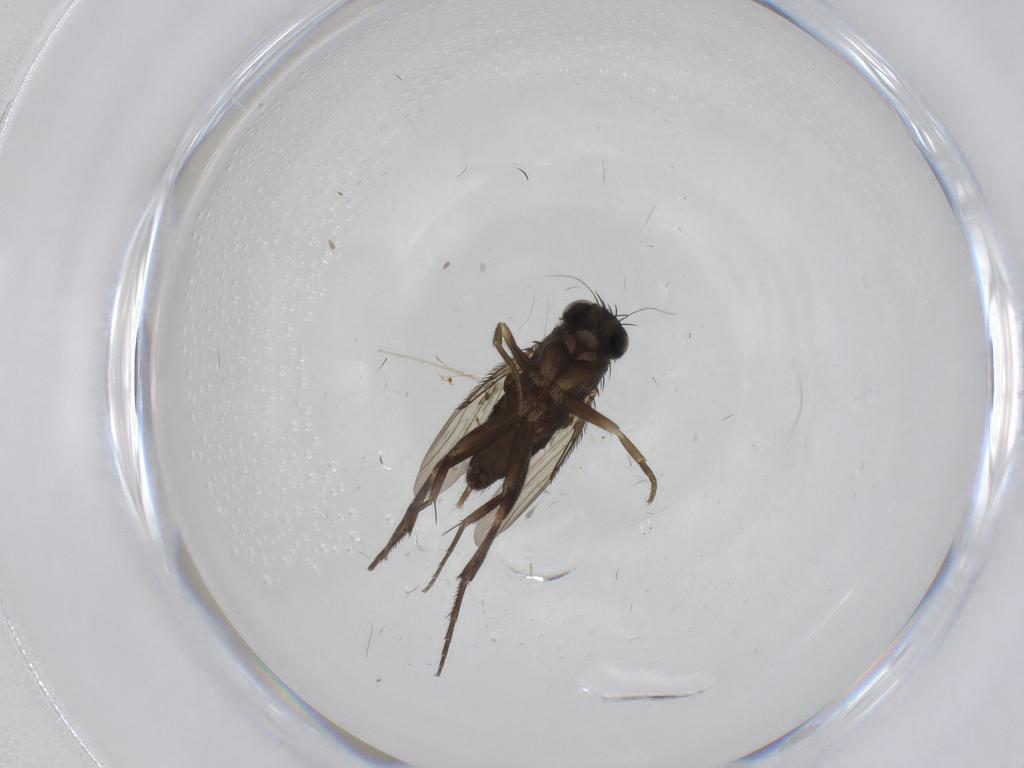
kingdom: Animalia
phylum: Arthropoda
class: Insecta
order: Diptera
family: Phoridae
